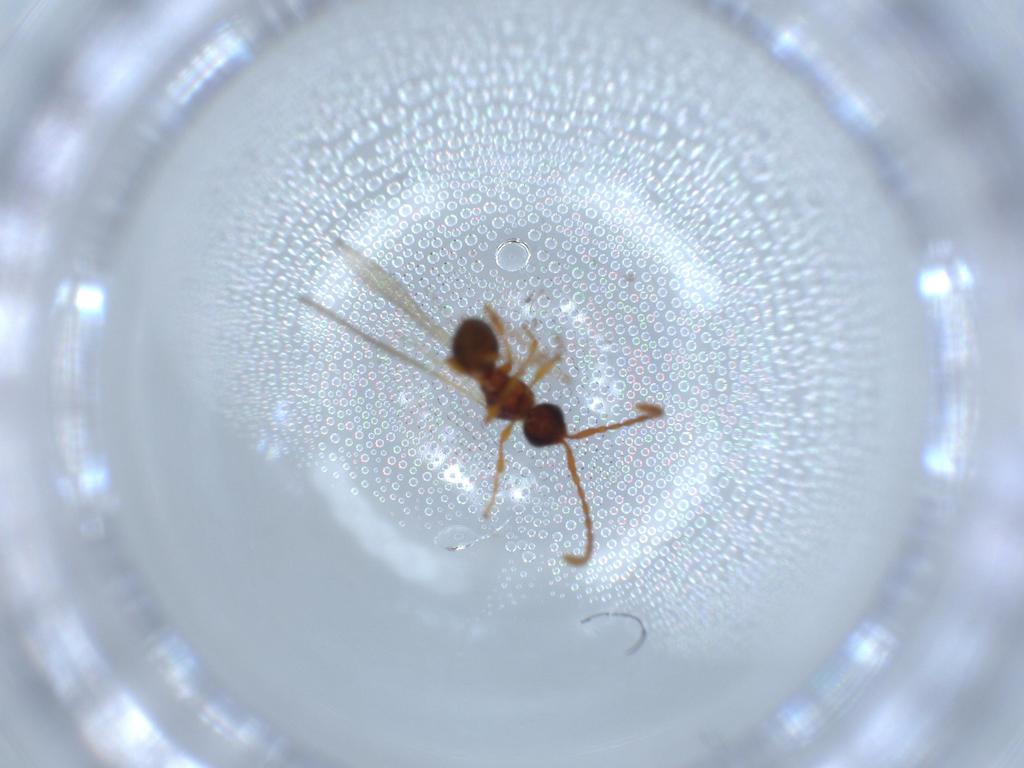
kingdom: Animalia
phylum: Arthropoda
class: Insecta
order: Hymenoptera
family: Diapriidae
